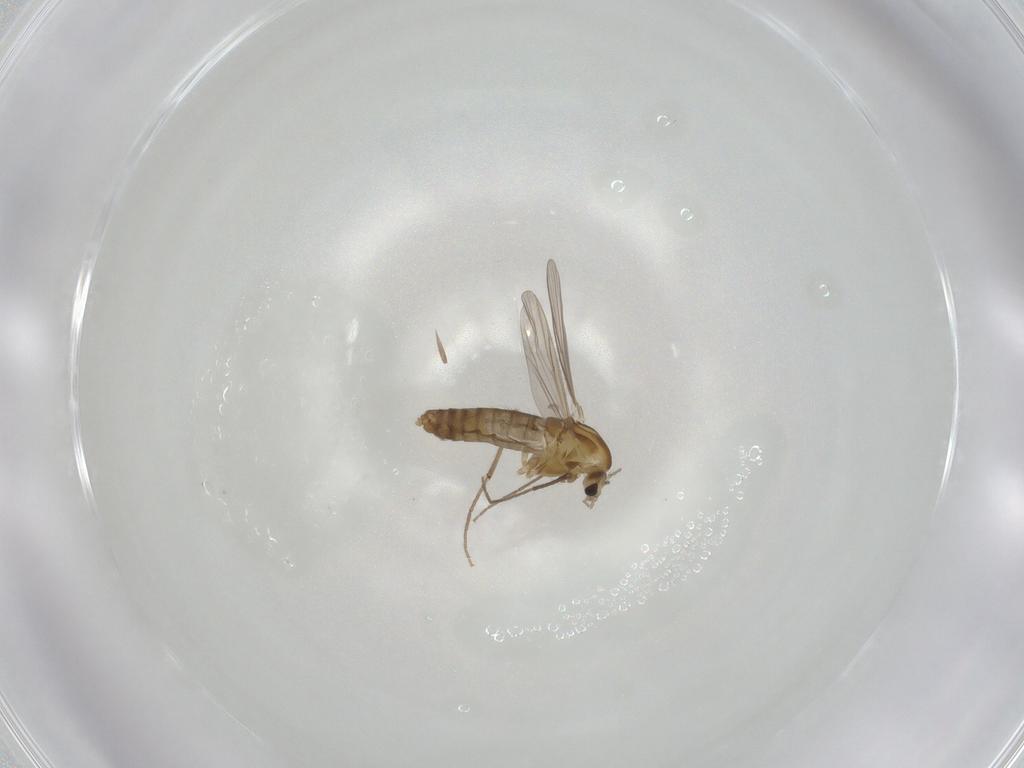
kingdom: Animalia
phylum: Arthropoda
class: Insecta
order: Diptera
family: Chironomidae
